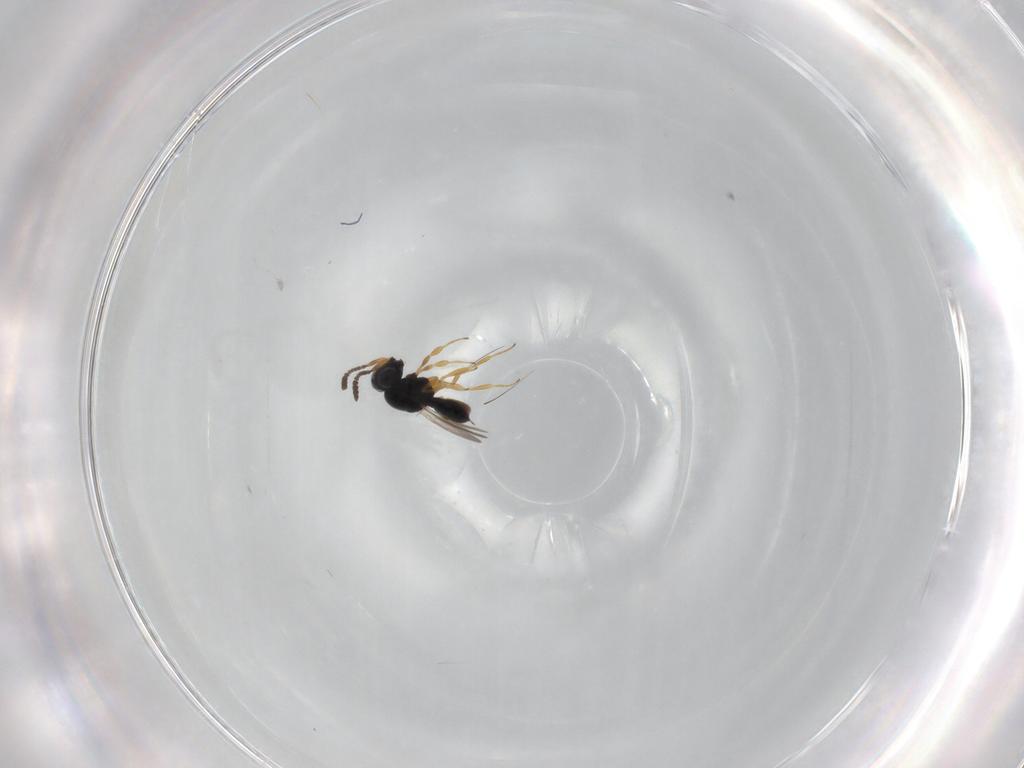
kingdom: Animalia
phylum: Arthropoda
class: Insecta
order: Hymenoptera
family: Scelionidae
